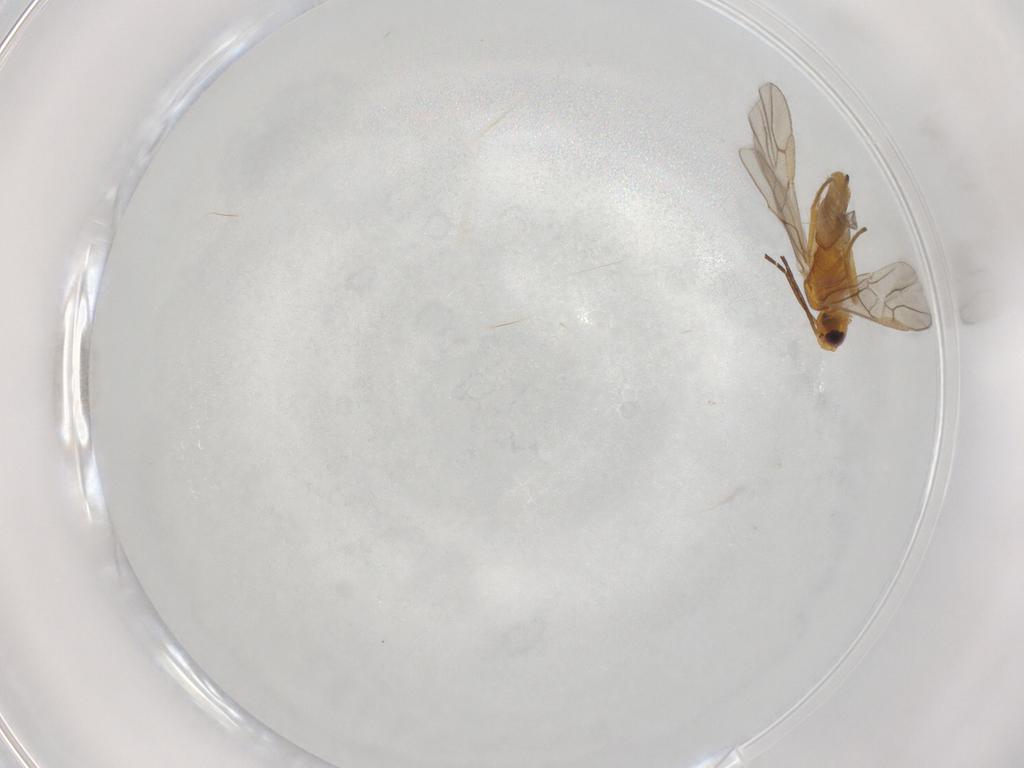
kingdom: Animalia
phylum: Arthropoda
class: Insecta
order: Hymenoptera
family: Braconidae
